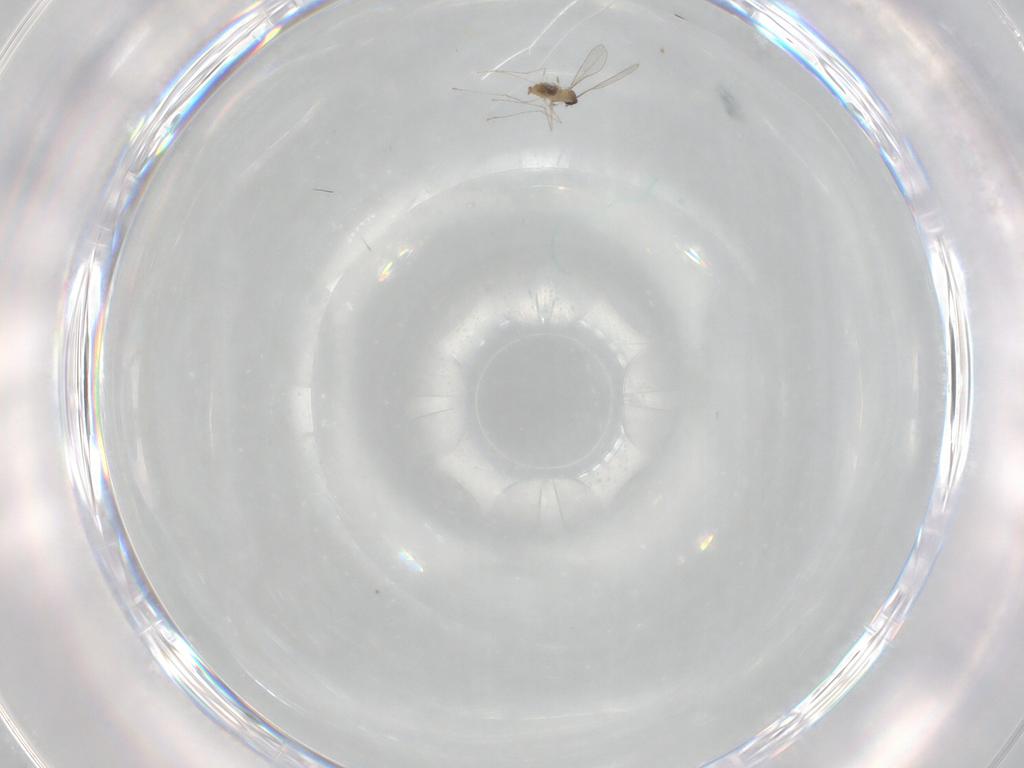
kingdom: Animalia
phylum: Arthropoda
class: Insecta
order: Diptera
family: Cecidomyiidae
